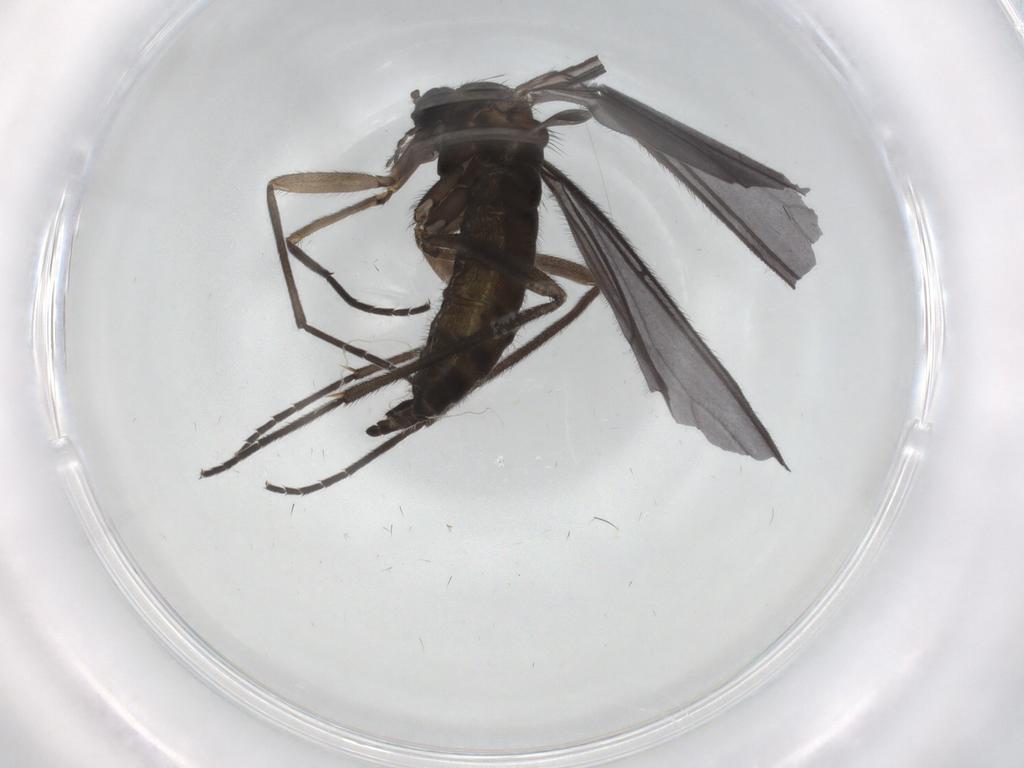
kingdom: Animalia
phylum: Arthropoda
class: Insecta
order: Diptera
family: Sciaridae
